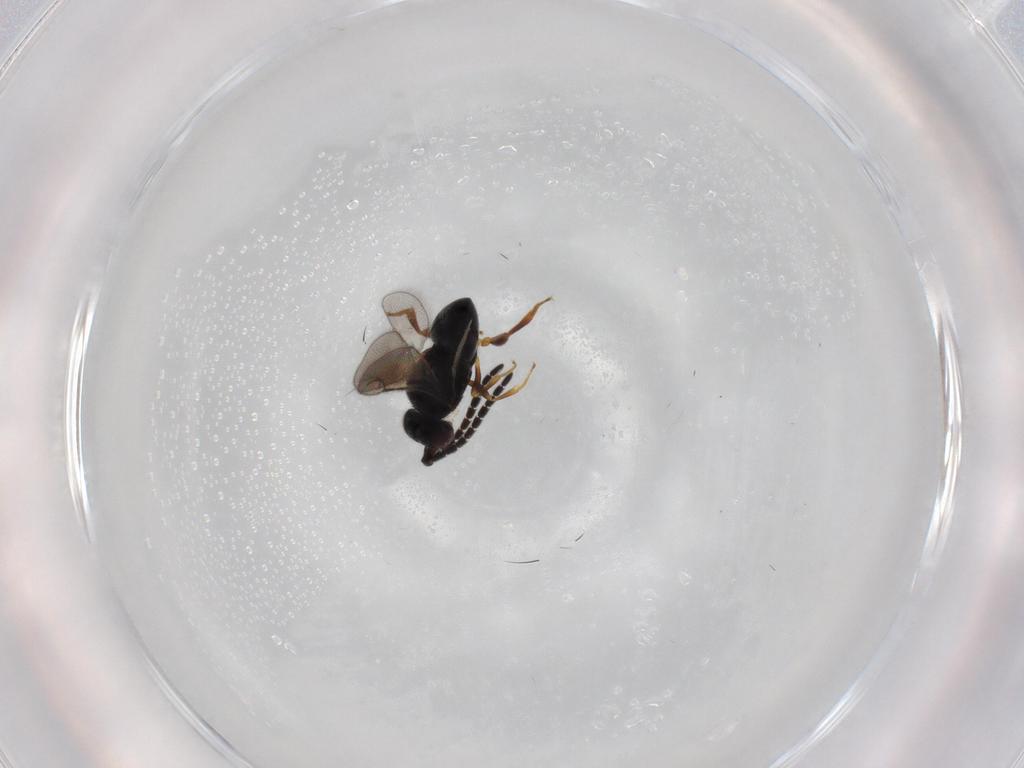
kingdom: Animalia
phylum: Arthropoda
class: Insecta
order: Hymenoptera
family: Ceraphronidae
